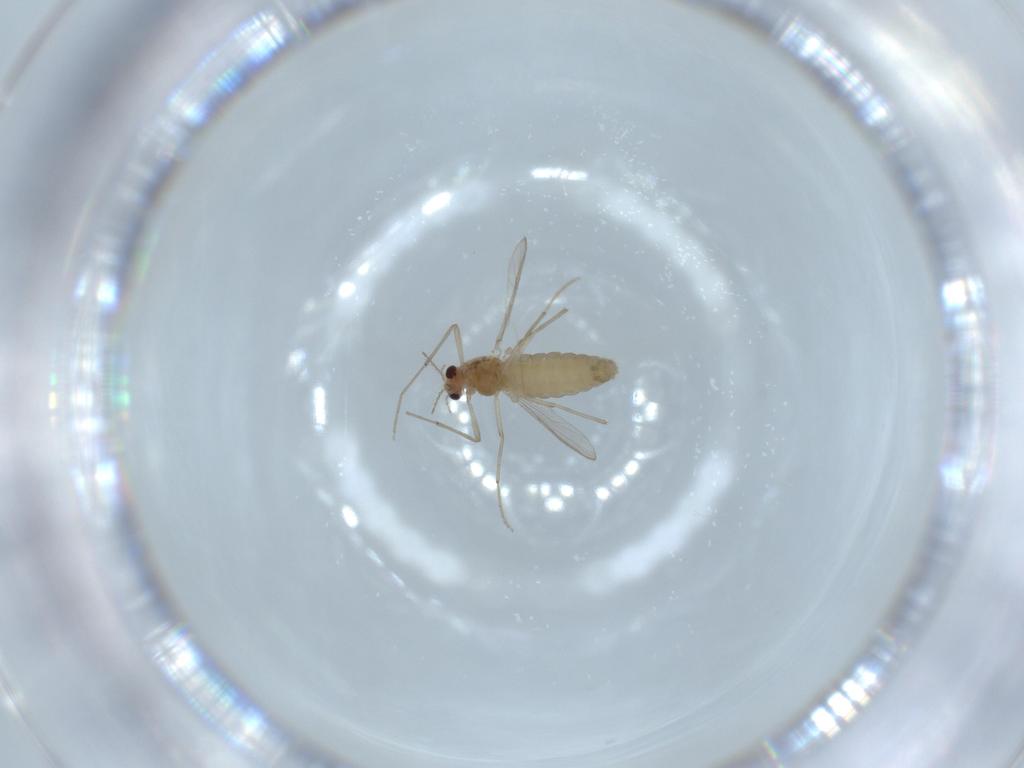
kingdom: Animalia
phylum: Arthropoda
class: Insecta
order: Diptera
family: Chironomidae
